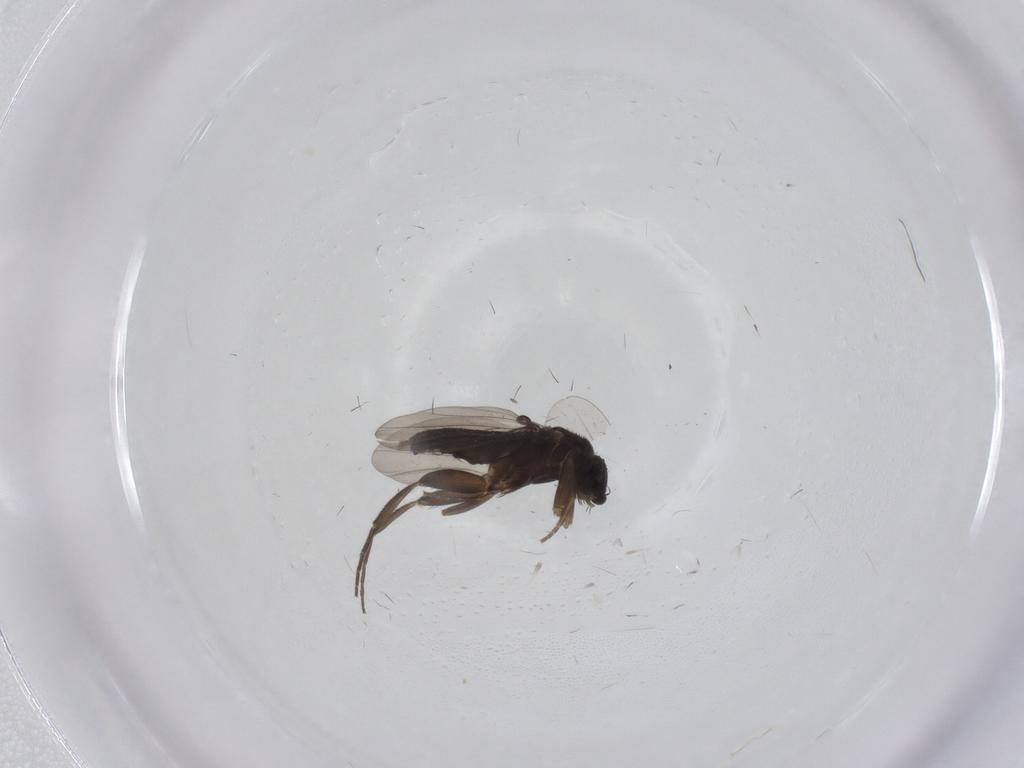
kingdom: Animalia
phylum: Arthropoda
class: Insecta
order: Diptera
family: Phoridae
